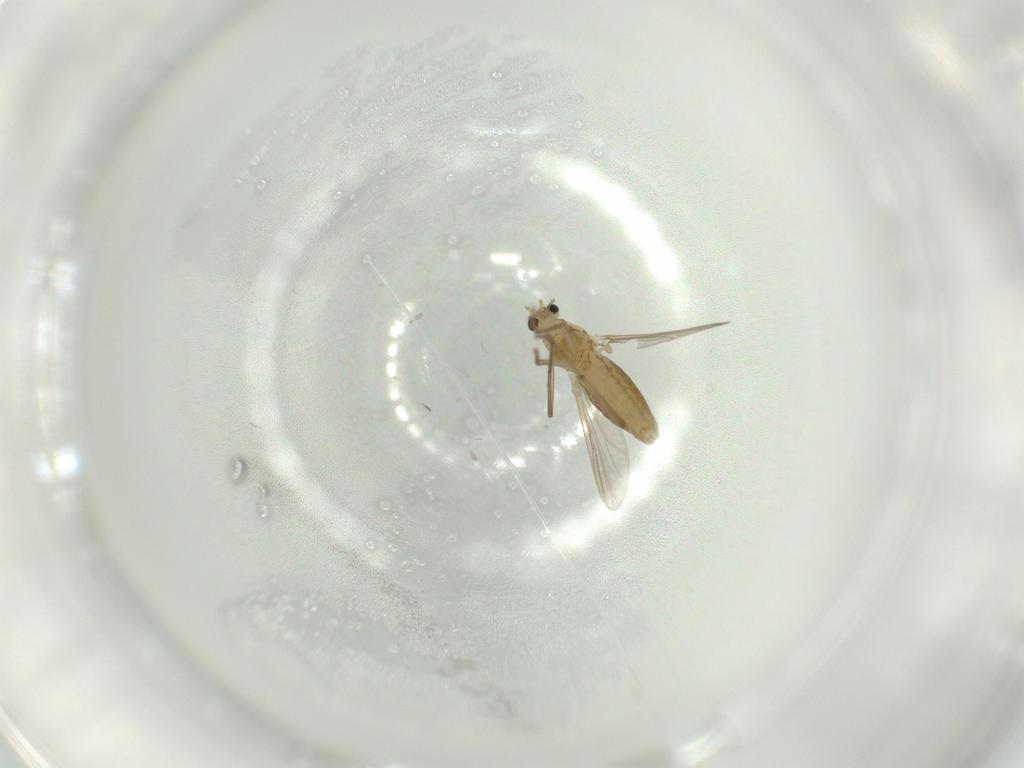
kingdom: Animalia
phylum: Arthropoda
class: Insecta
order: Diptera
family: Chironomidae
